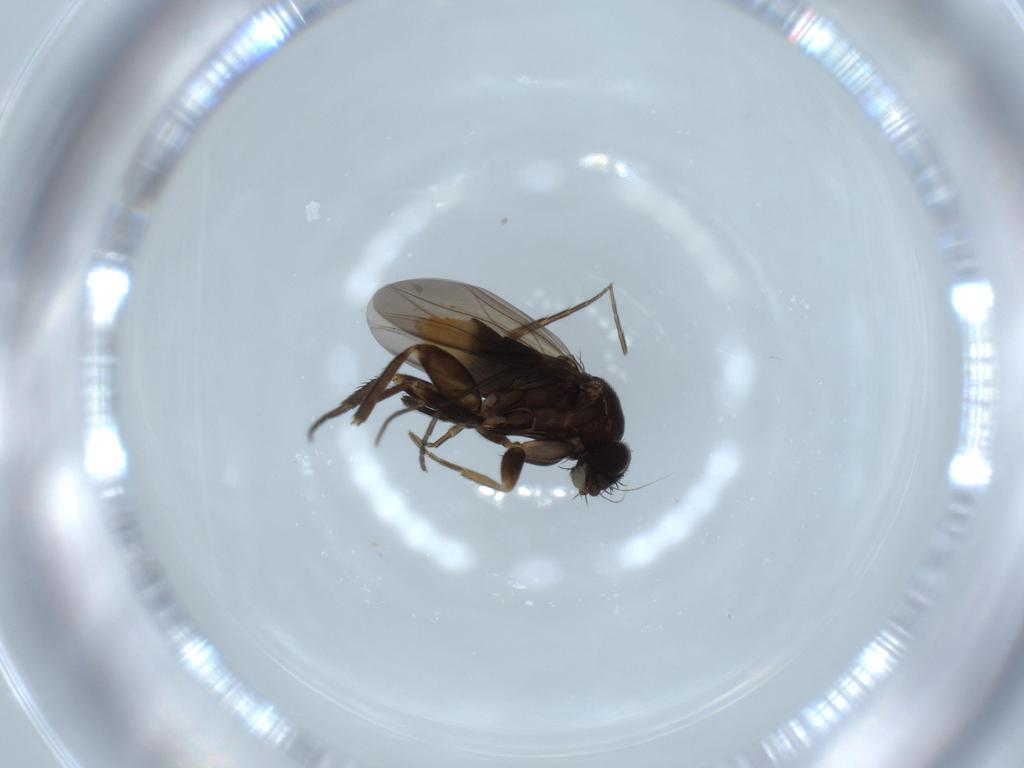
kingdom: Animalia
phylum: Arthropoda
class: Insecta
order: Diptera
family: Phoridae
